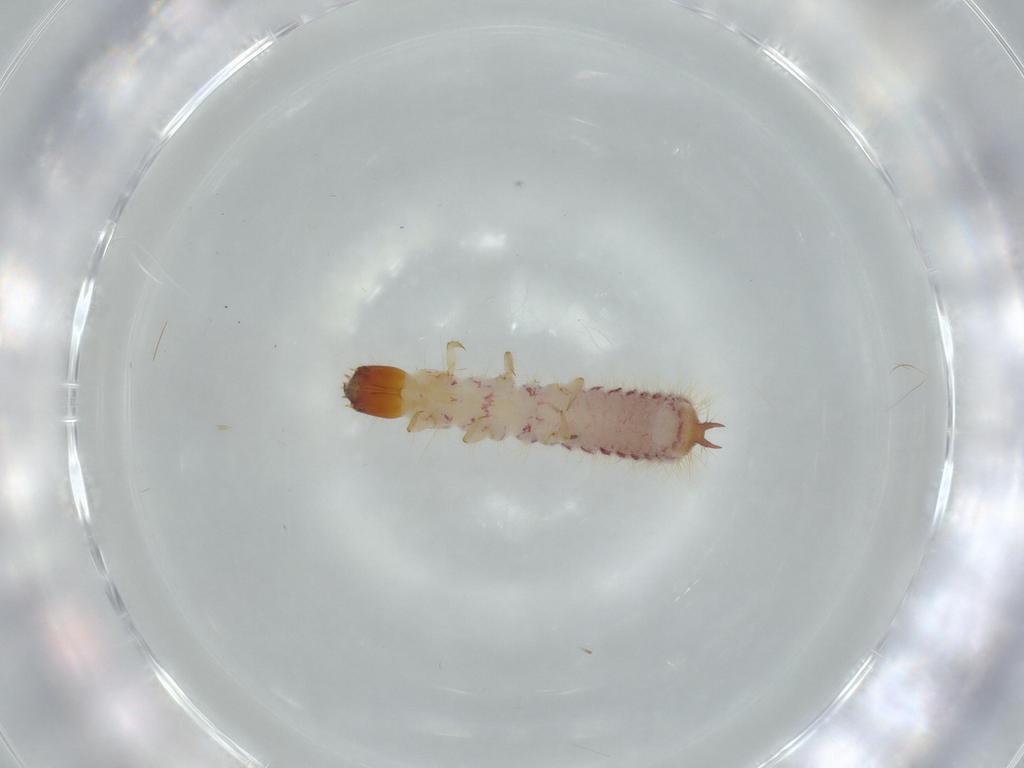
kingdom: Animalia
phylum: Arthropoda
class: Insecta
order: Coleoptera
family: Cleridae
